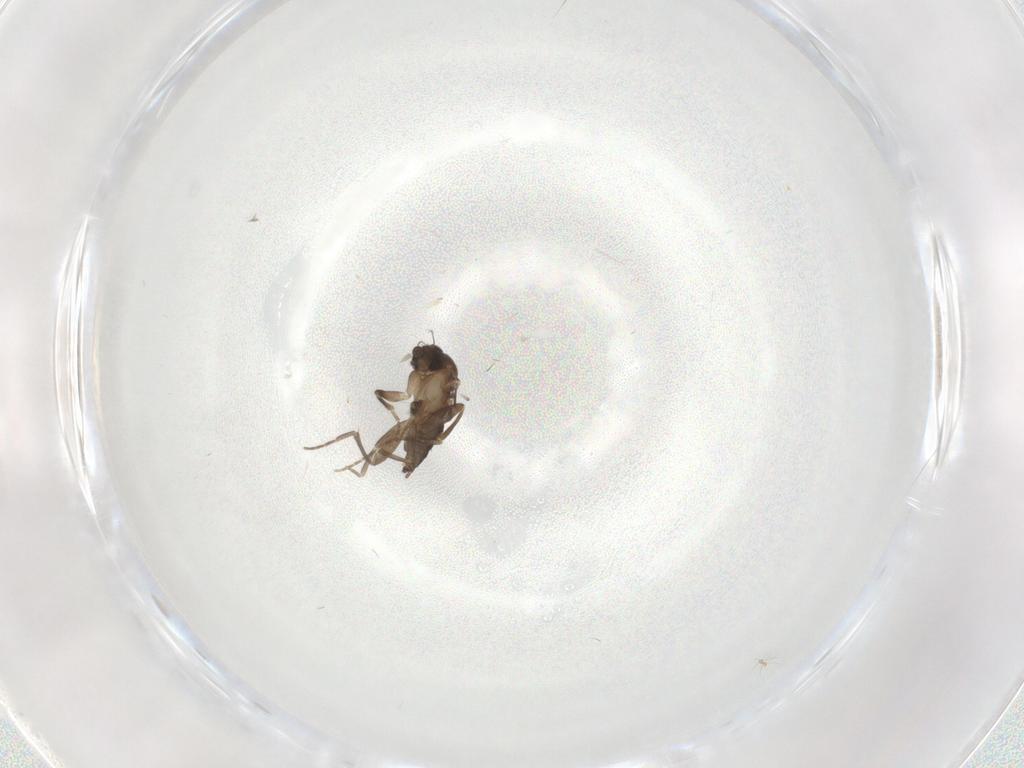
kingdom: Animalia
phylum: Arthropoda
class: Insecta
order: Diptera
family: Phoridae
